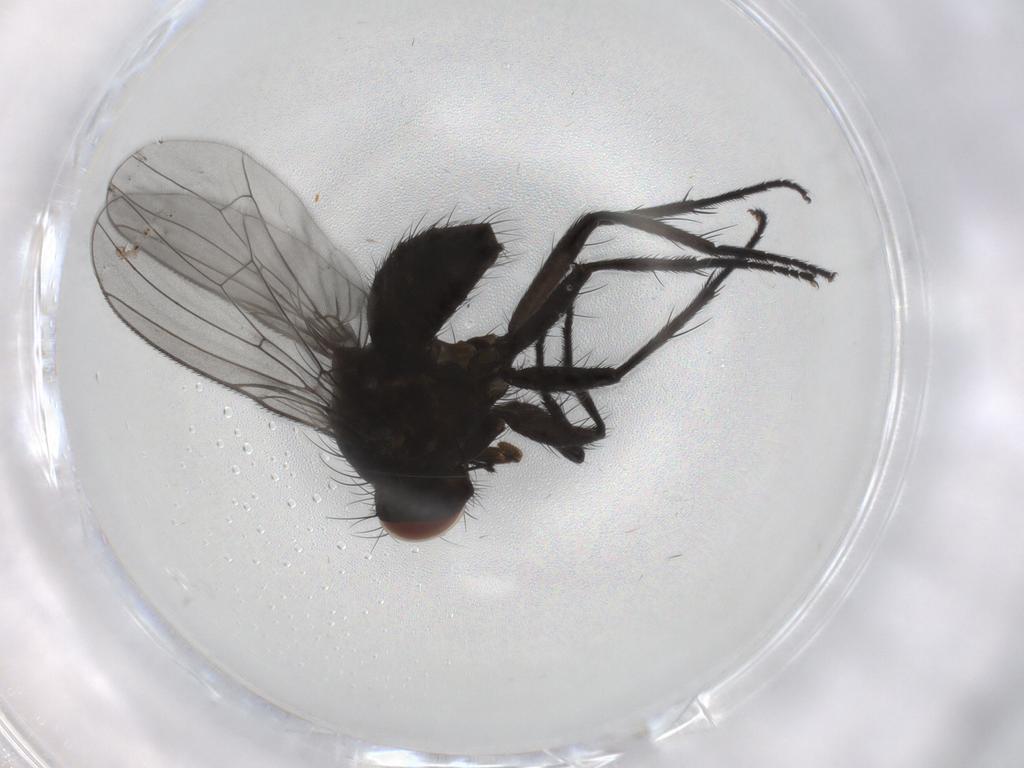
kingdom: Animalia
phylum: Arthropoda
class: Insecta
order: Diptera
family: Muscidae
